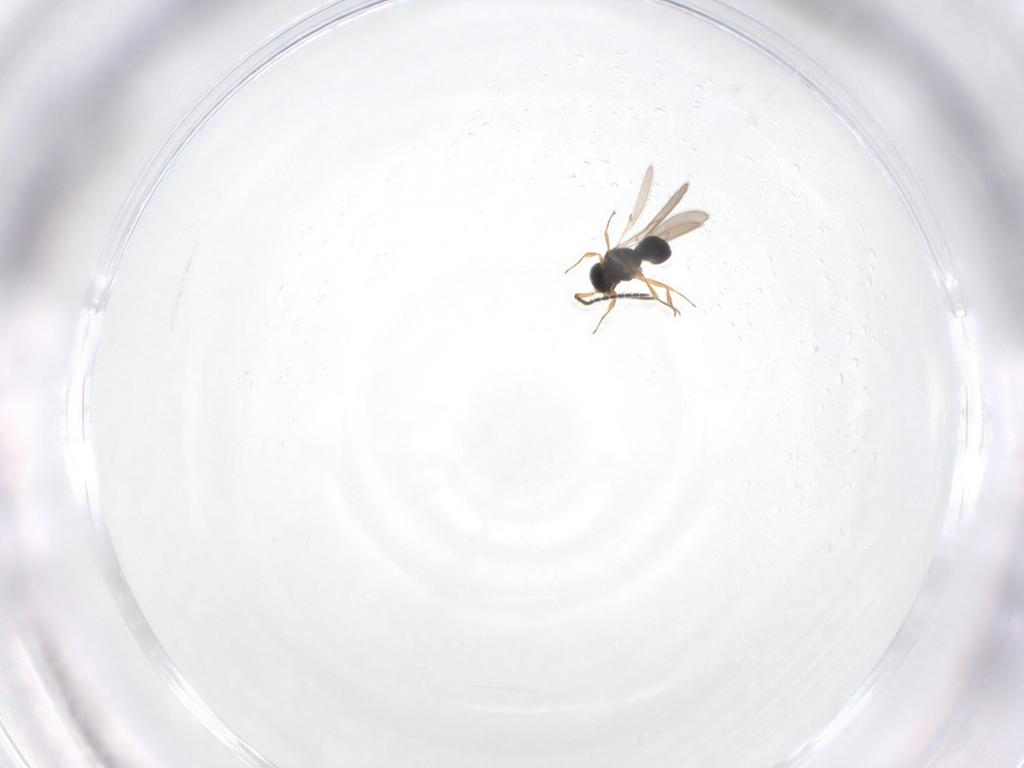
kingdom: Animalia
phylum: Arthropoda
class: Insecta
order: Hymenoptera
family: Scelionidae
